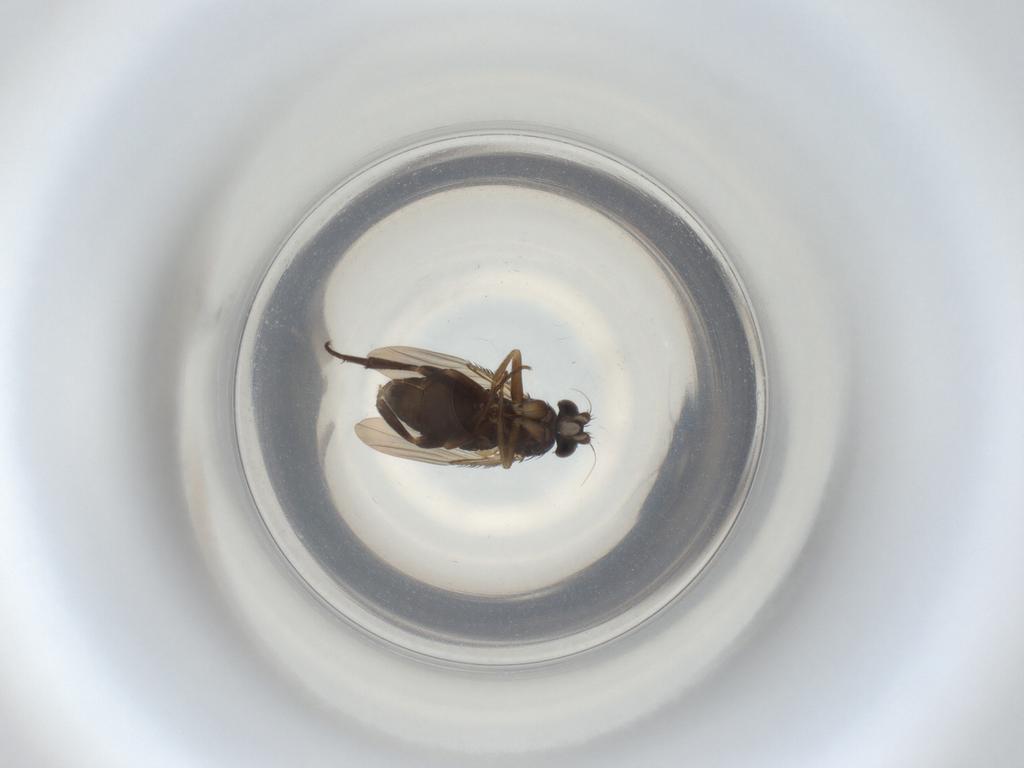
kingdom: Animalia
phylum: Arthropoda
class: Insecta
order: Diptera
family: Phoridae
